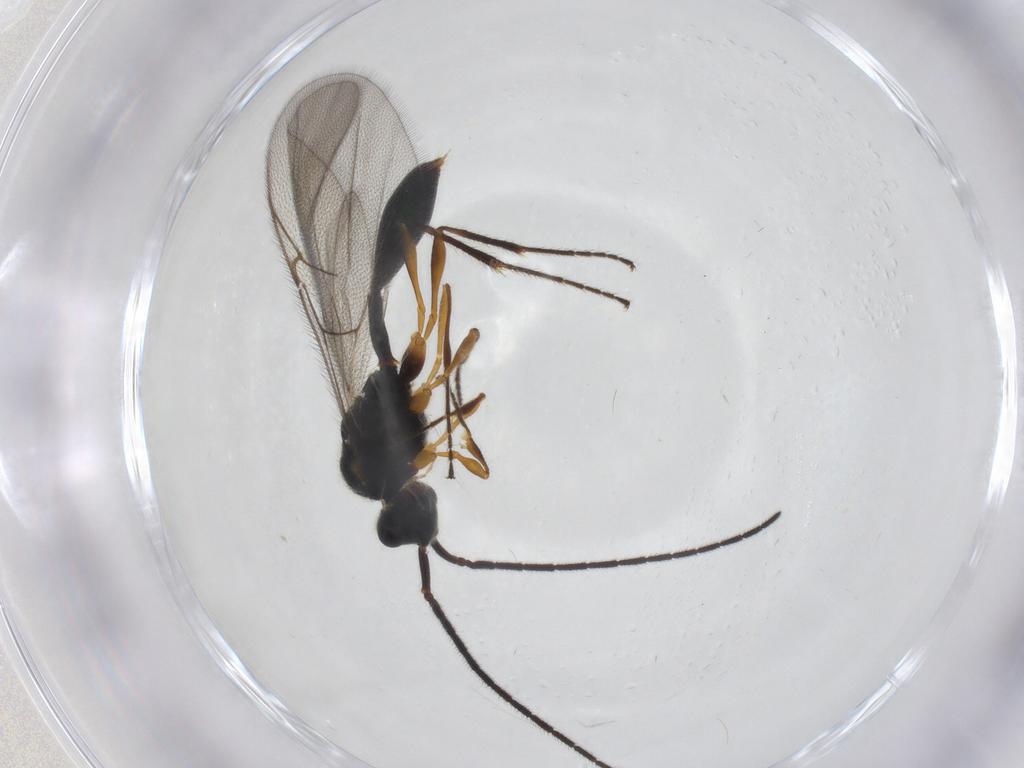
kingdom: Animalia
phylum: Arthropoda
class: Insecta
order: Hymenoptera
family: Diapriidae
